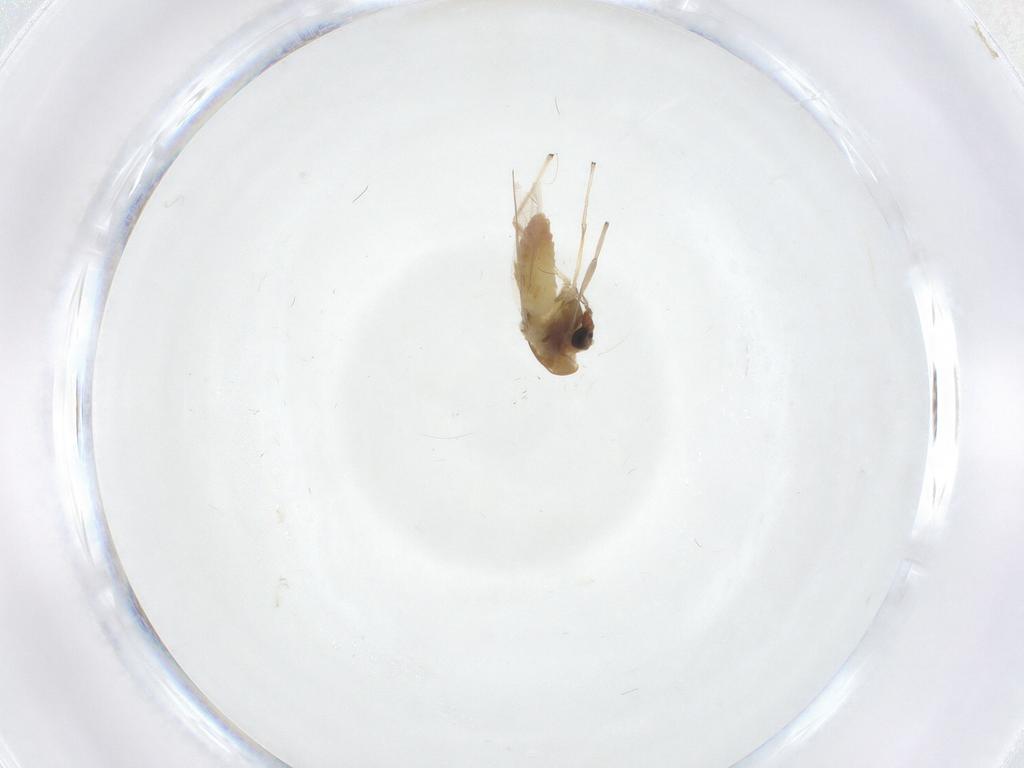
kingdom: Animalia
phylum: Arthropoda
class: Insecta
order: Diptera
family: Chironomidae
